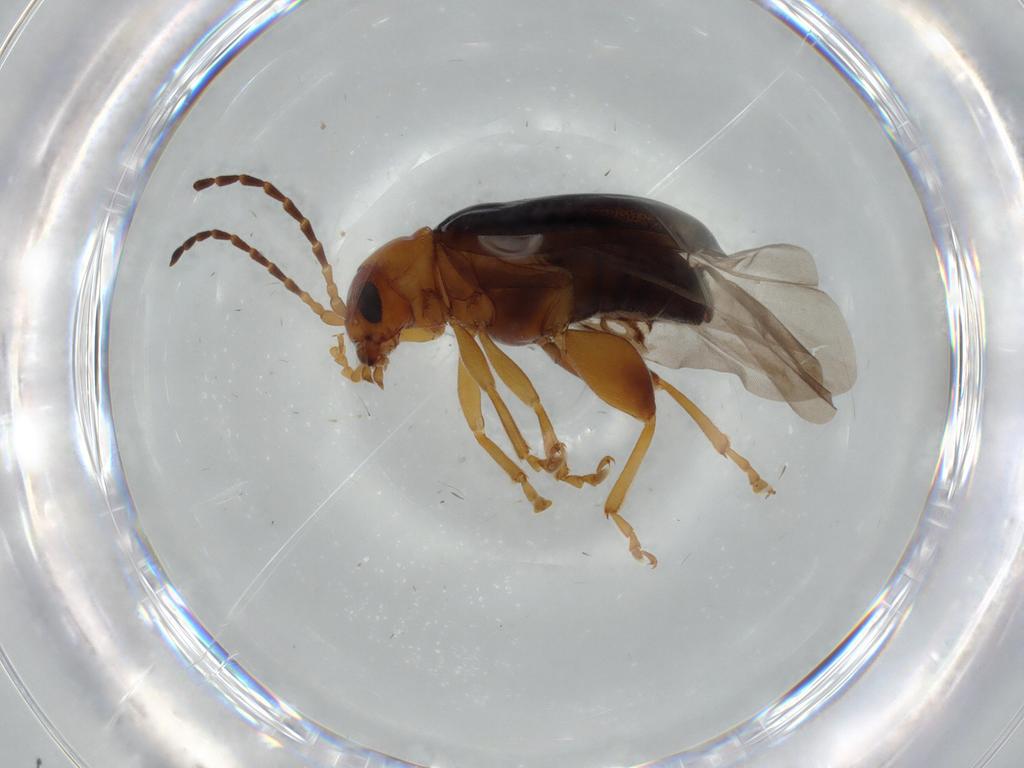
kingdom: Animalia
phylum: Arthropoda
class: Insecta
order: Coleoptera
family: Chrysomelidae
